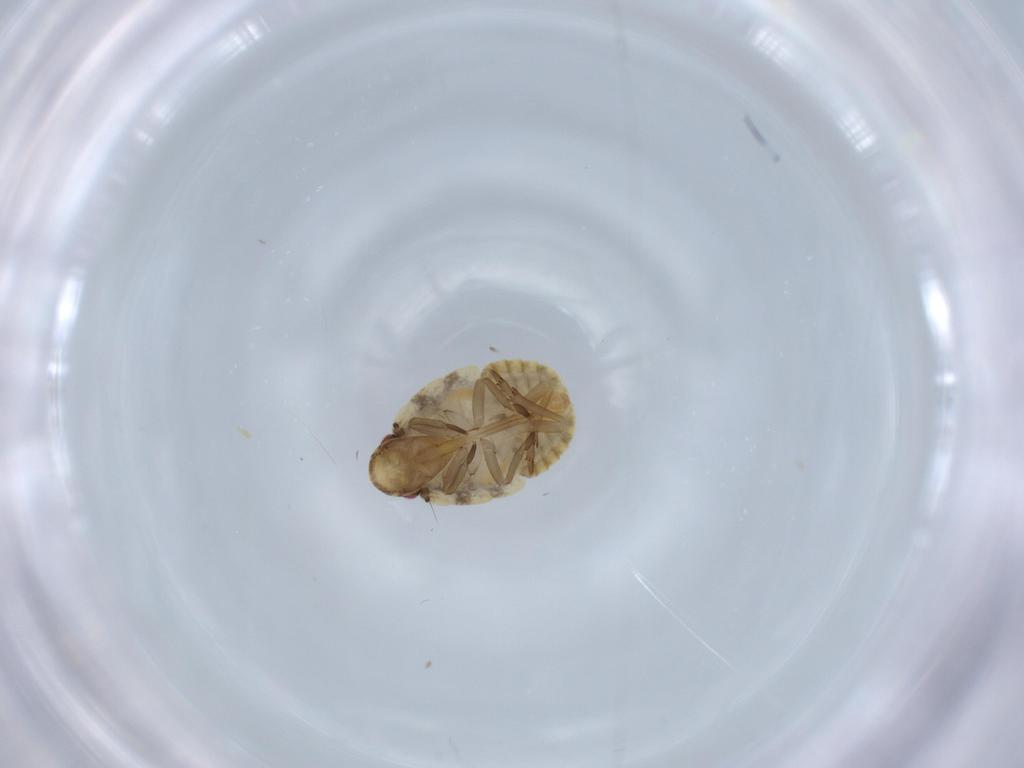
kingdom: Animalia
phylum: Arthropoda
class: Insecta
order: Hemiptera
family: Flatidae
